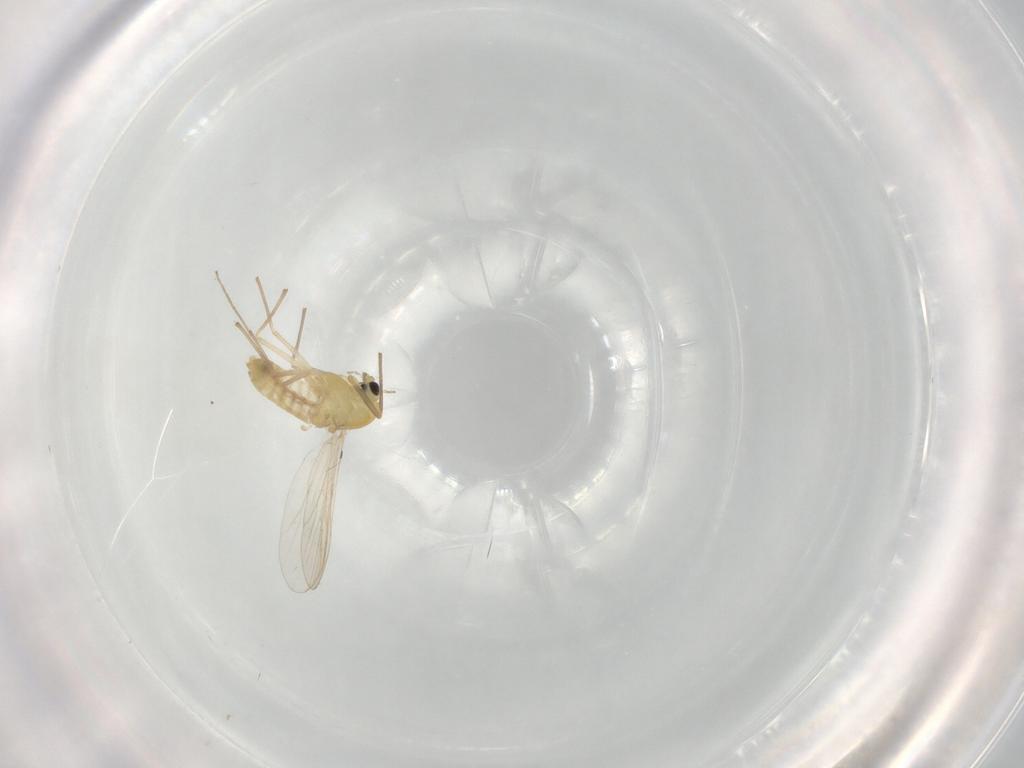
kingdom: Animalia
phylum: Arthropoda
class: Insecta
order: Diptera
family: Chironomidae
